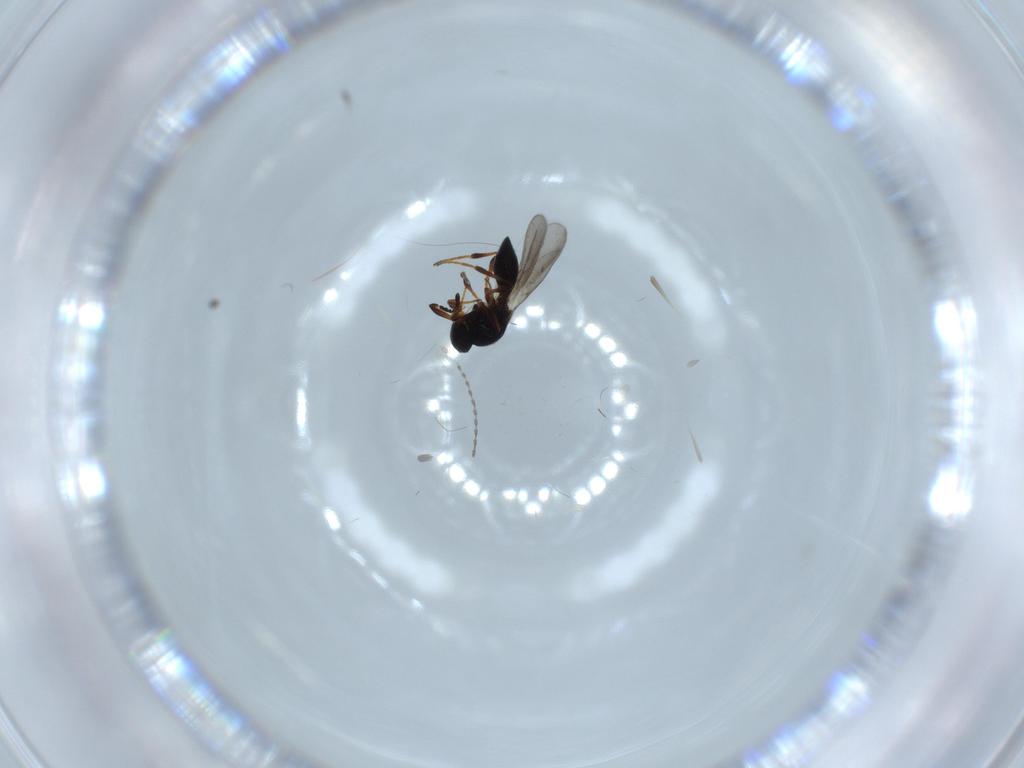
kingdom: Animalia
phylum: Arthropoda
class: Insecta
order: Hymenoptera
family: Platygastridae
